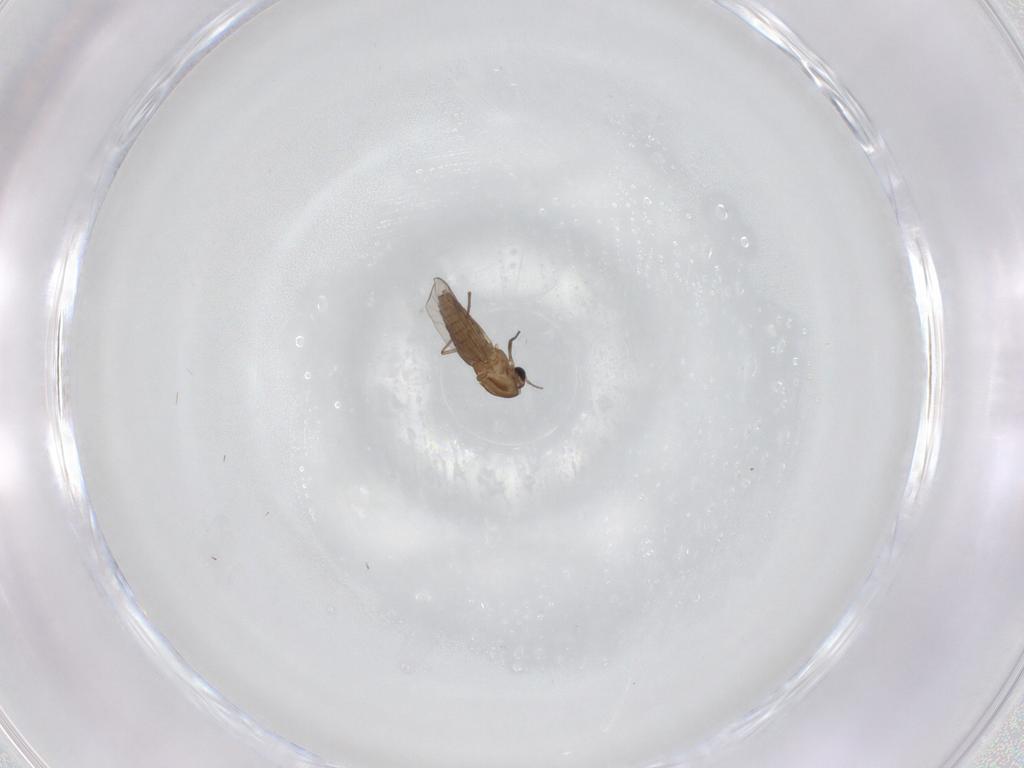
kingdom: Animalia
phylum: Arthropoda
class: Insecta
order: Diptera
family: Chironomidae
